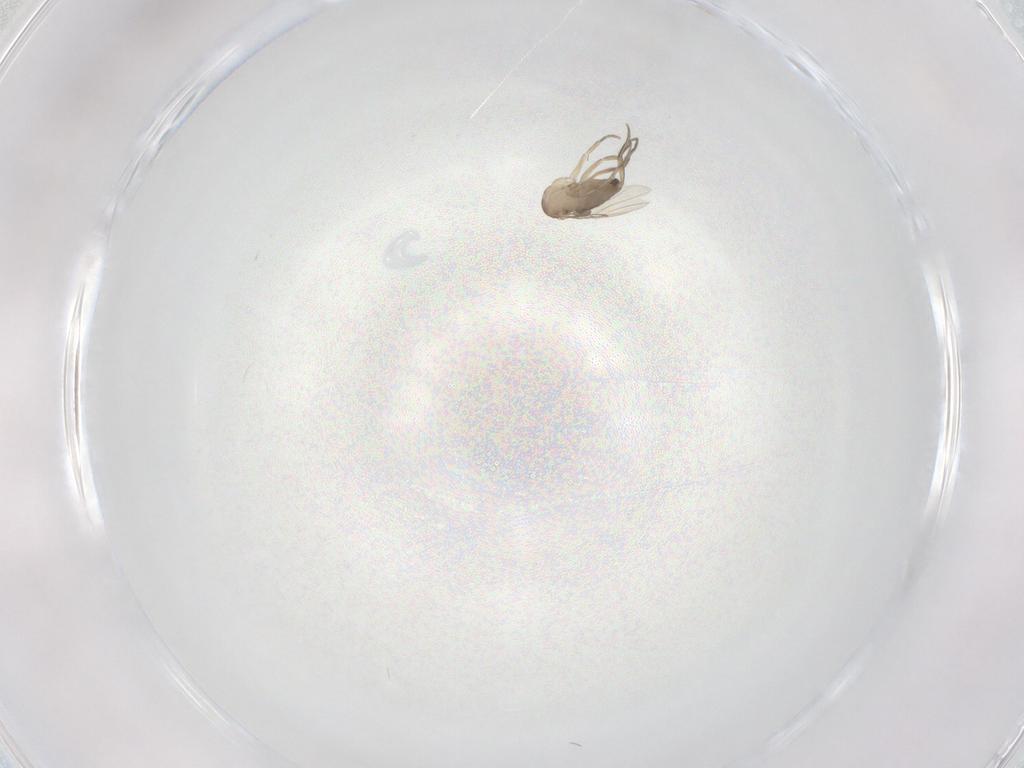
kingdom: Animalia
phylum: Arthropoda
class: Insecta
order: Diptera
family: Phoridae
